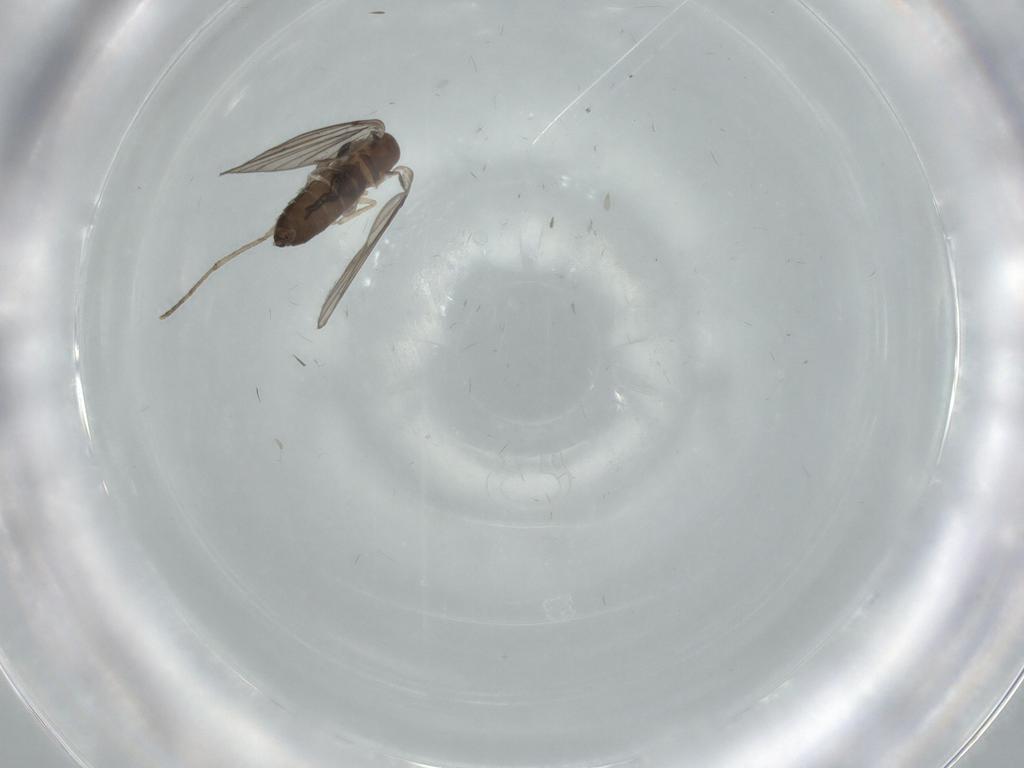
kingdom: Animalia
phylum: Arthropoda
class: Insecta
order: Diptera
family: Psychodidae
